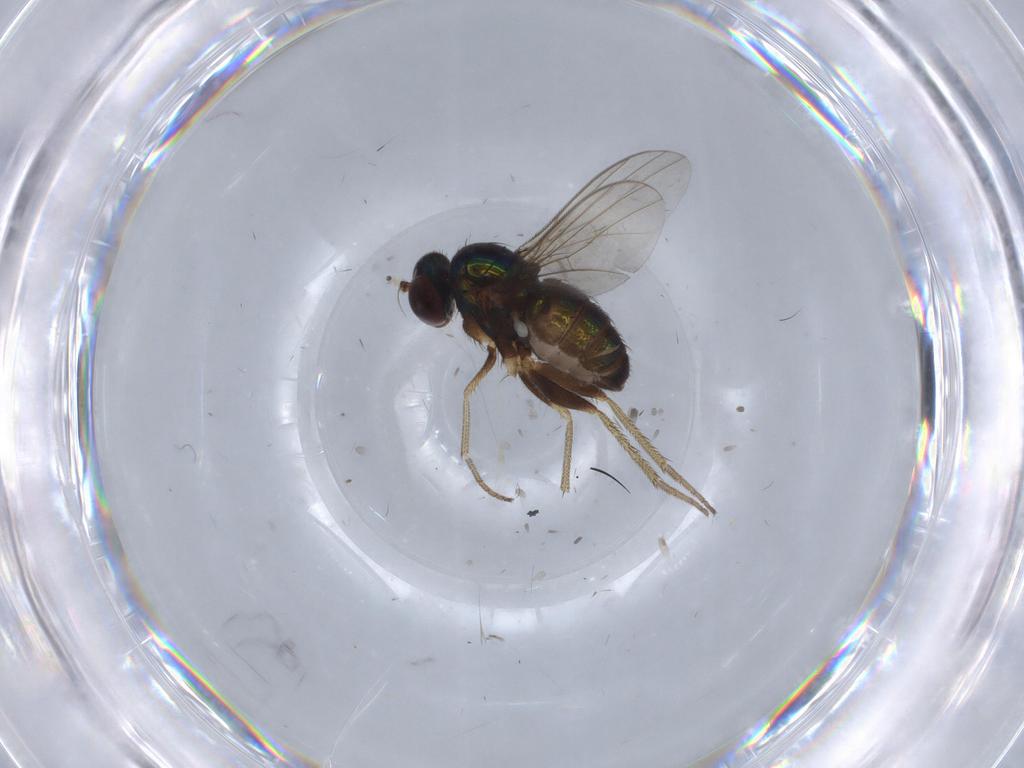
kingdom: Animalia
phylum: Arthropoda
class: Insecta
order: Diptera
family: Dolichopodidae
